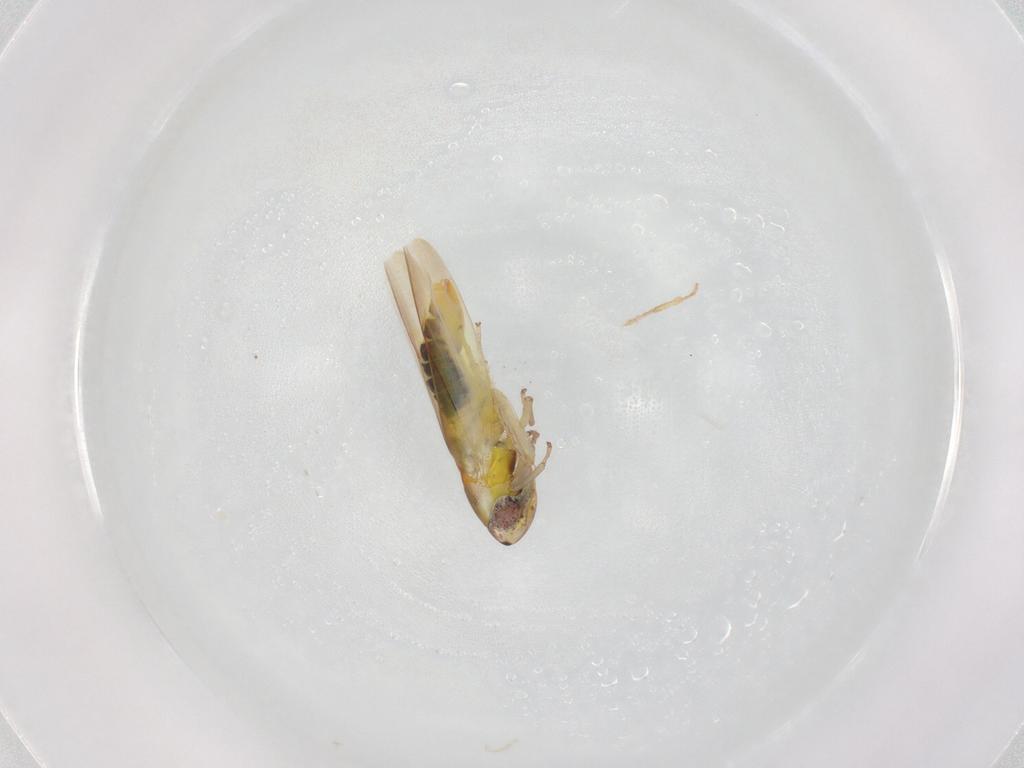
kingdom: Animalia
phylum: Arthropoda
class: Insecta
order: Hemiptera
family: Cicadellidae
